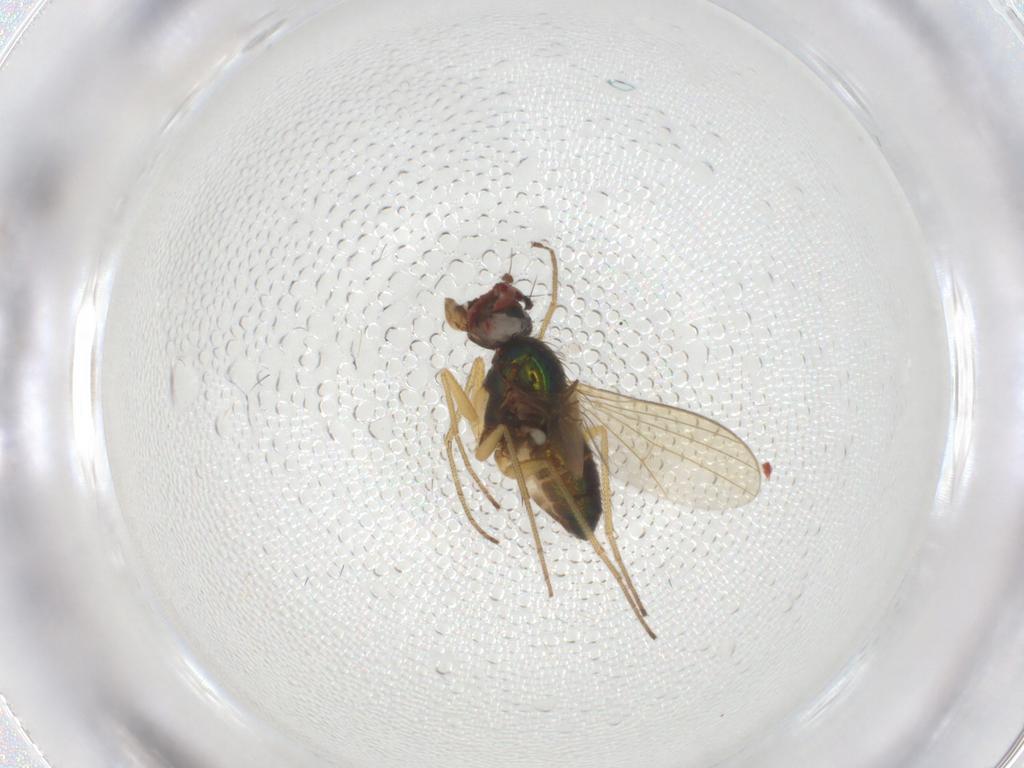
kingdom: Animalia
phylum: Arthropoda
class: Insecta
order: Diptera
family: Dolichopodidae
